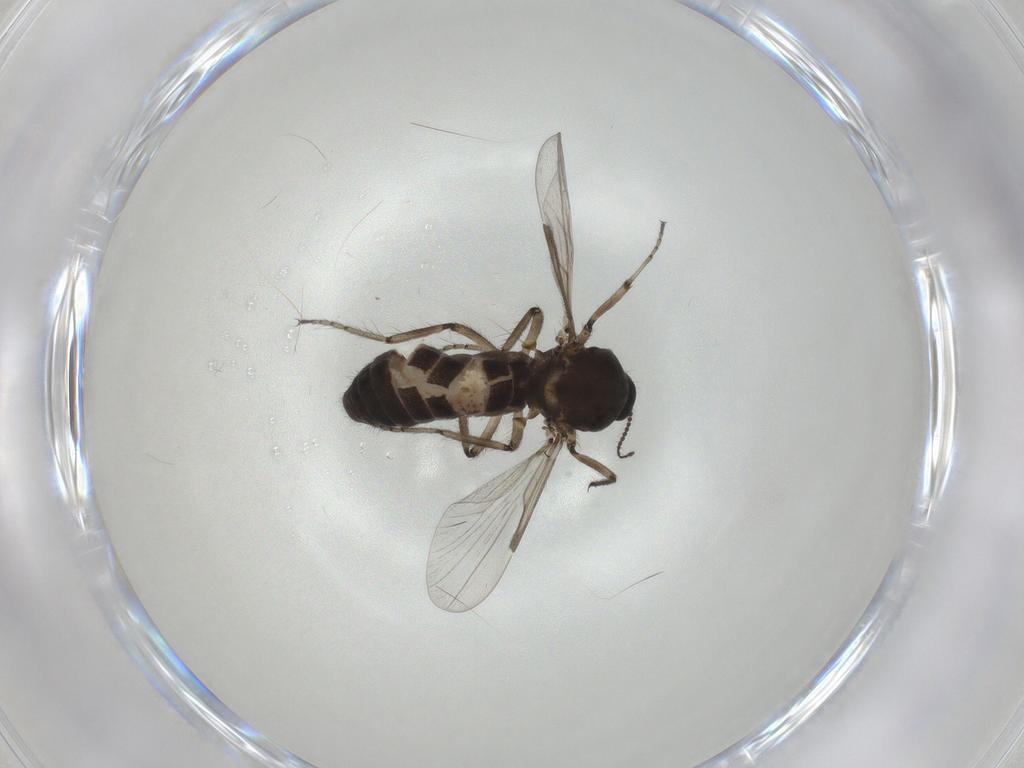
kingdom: Animalia
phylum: Arthropoda
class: Insecta
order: Diptera
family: Ceratopogonidae
